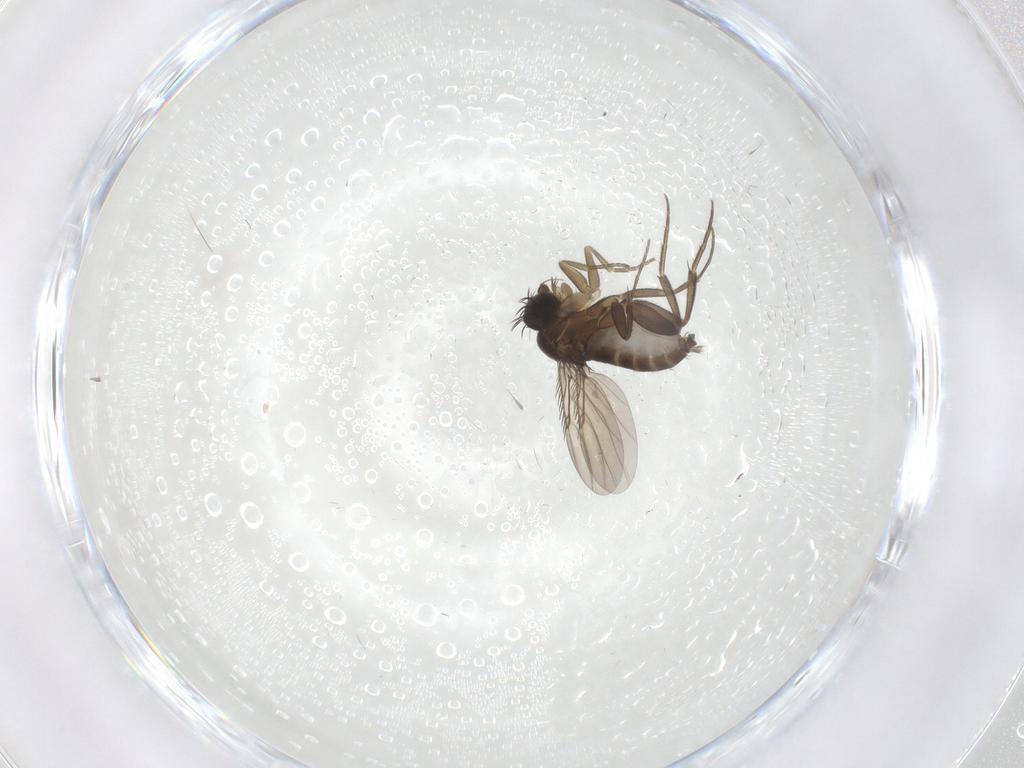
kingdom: Animalia
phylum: Arthropoda
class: Insecta
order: Diptera
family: Phoridae
